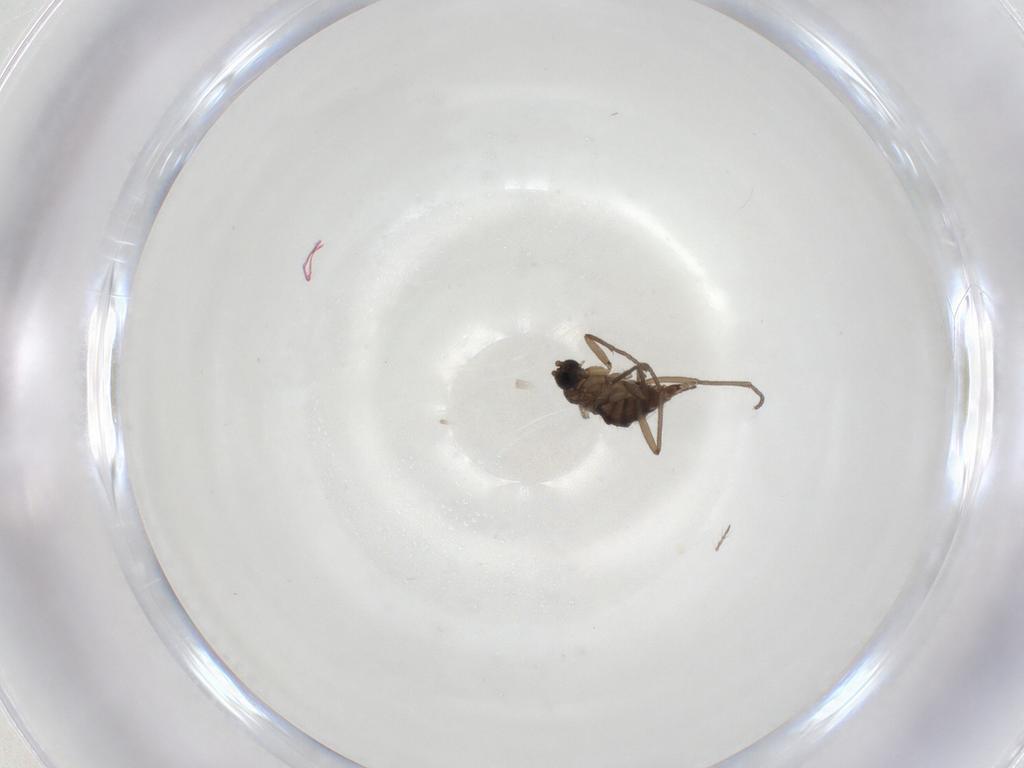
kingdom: Animalia
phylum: Arthropoda
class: Insecta
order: Diptera
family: Sciaridae
